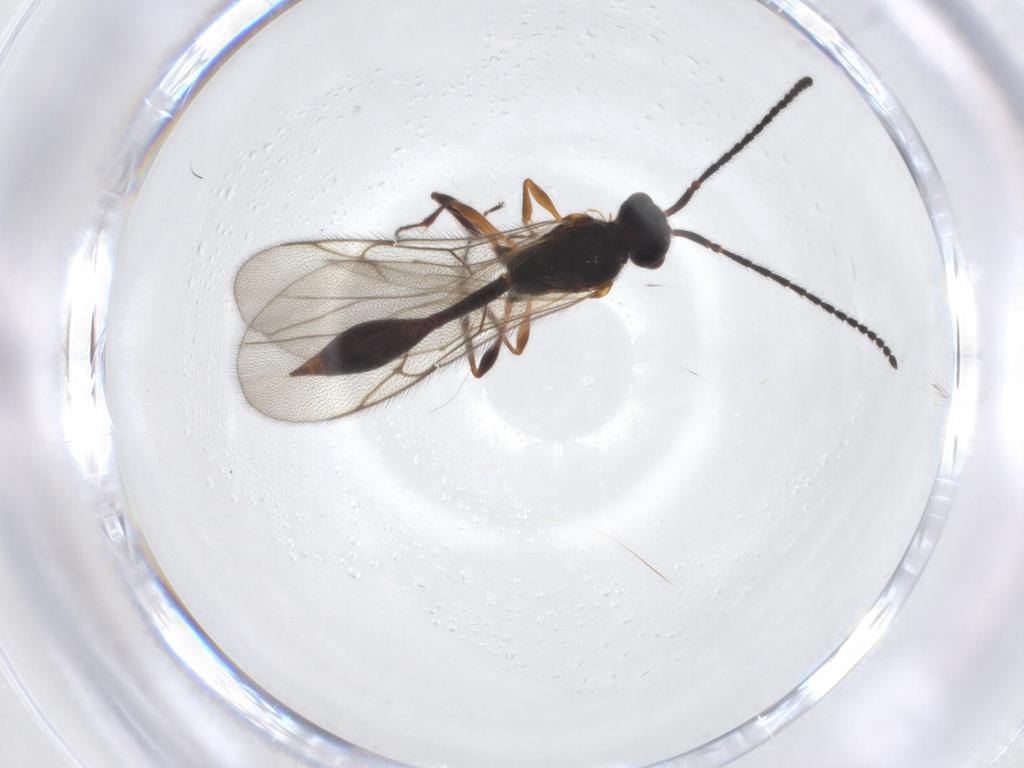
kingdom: Animalia
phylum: Arthropoda
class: Insecta
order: Hymenoptera
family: Diapriidae
